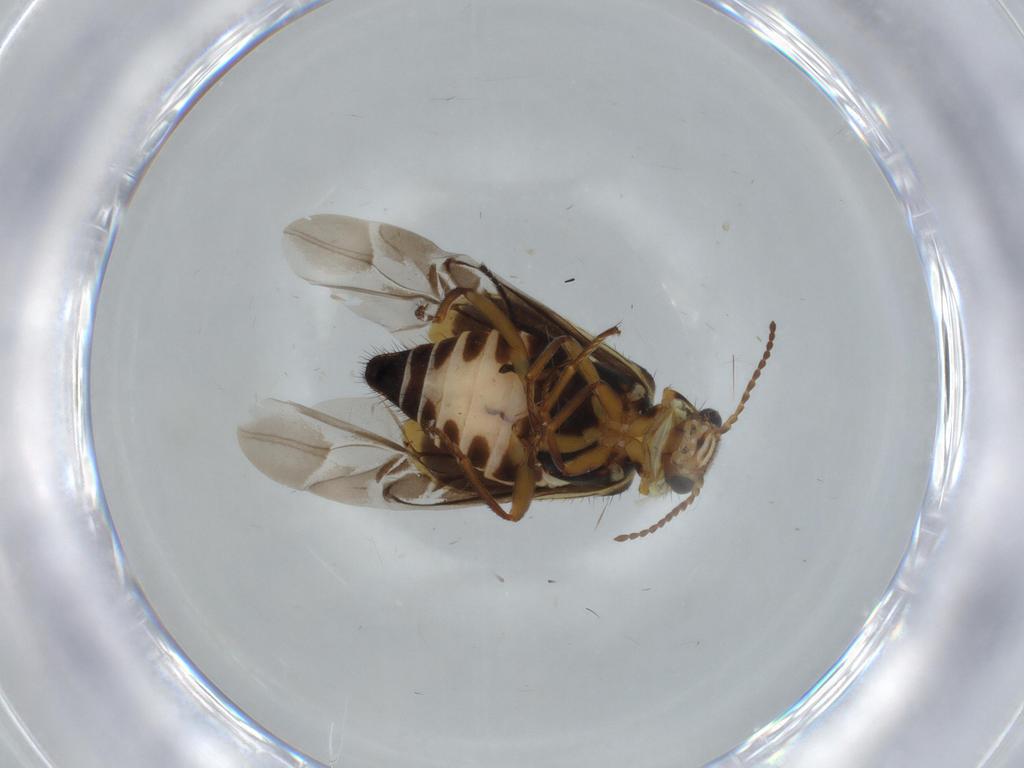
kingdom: Animalia
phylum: Arthropoda
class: Insecta
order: Coleoptera
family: Melyridae
